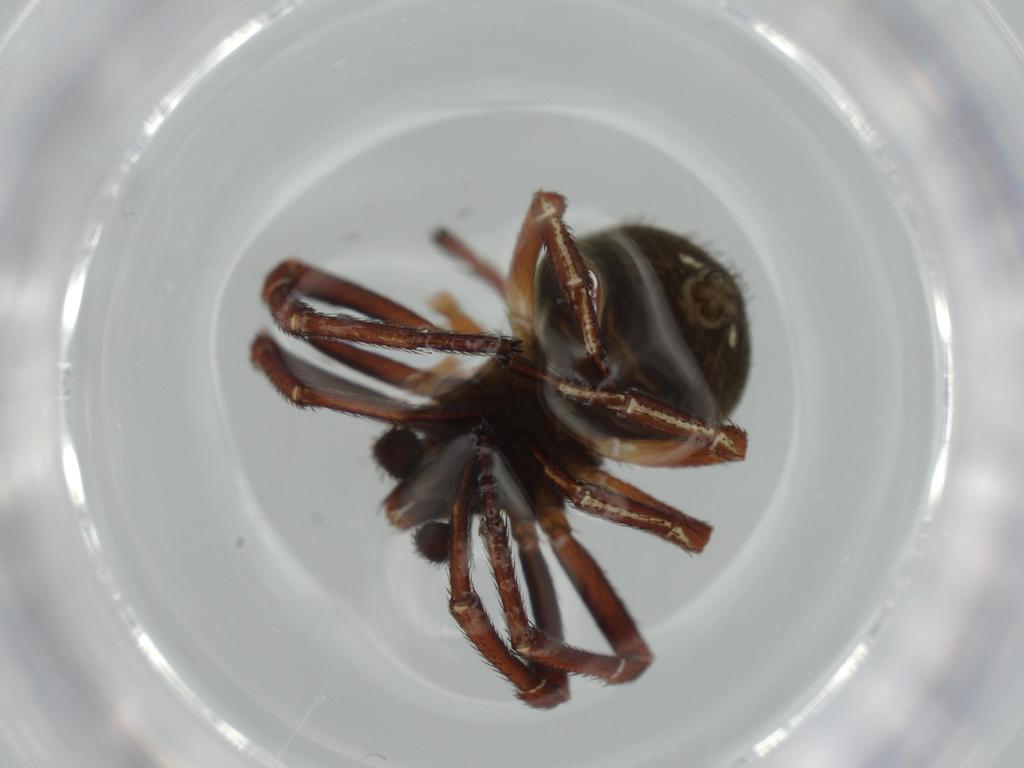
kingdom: Animalia
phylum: Arthropoda
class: Arachnida
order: Araneae
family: Thomisidae
